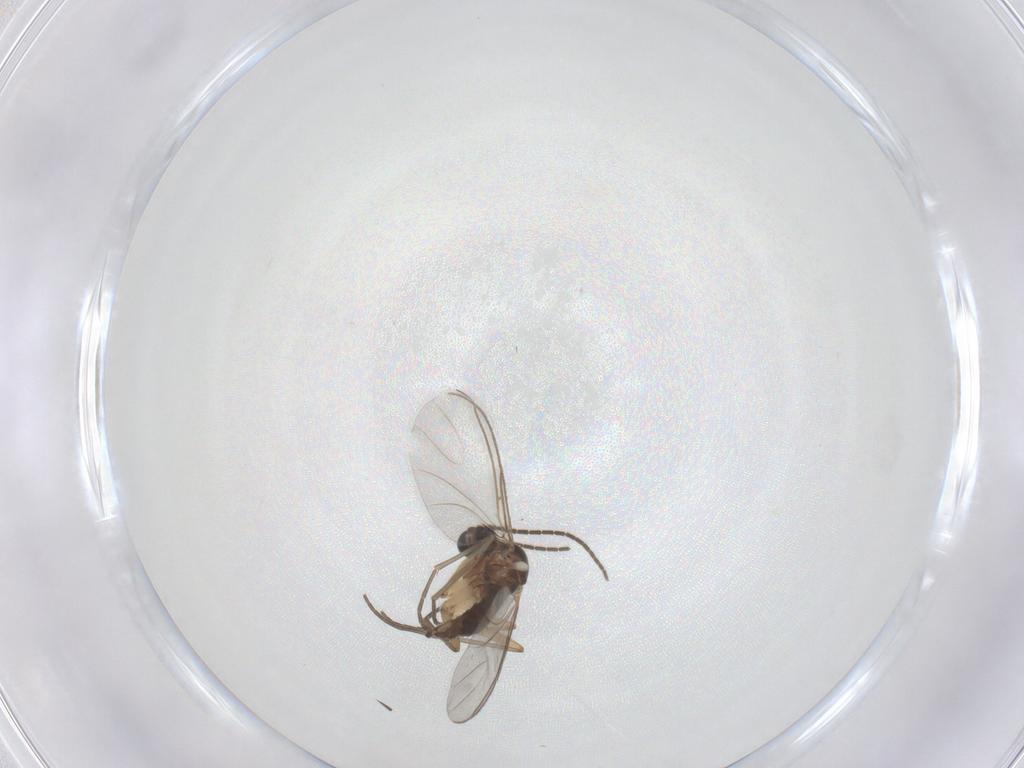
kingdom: Animalia
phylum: Arthropoda
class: Insecta
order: Diptera
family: Sciaridae
